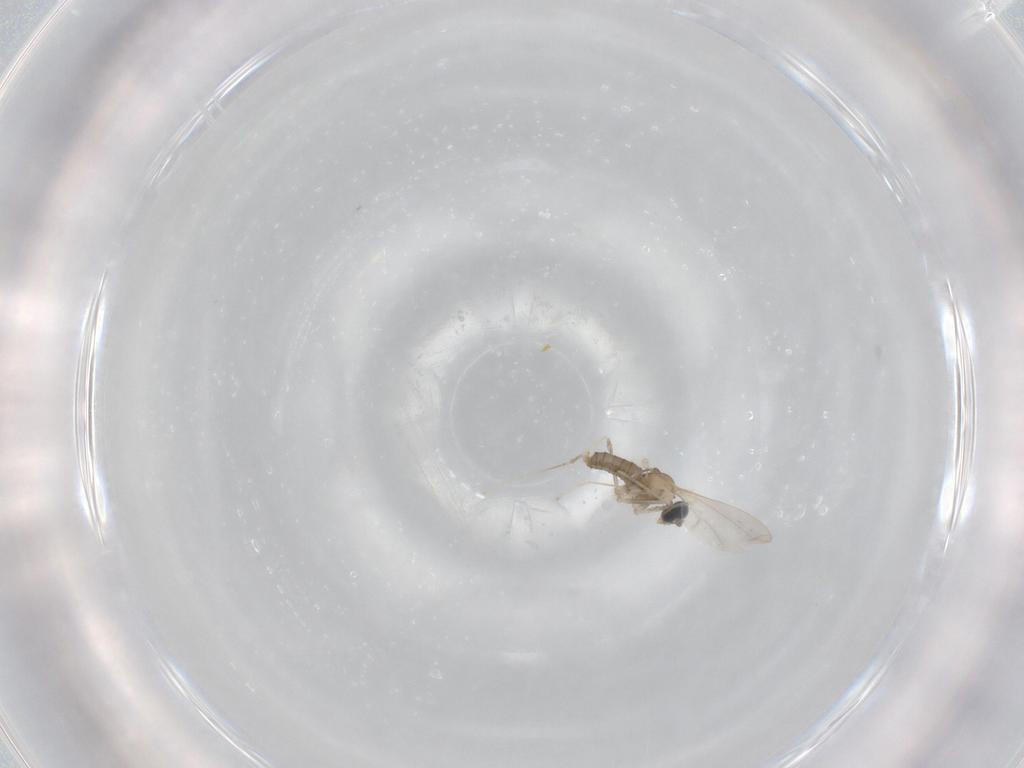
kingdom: Animalia
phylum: Arthropoda
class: Insecta
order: Diptera
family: Cecidomyiidae
